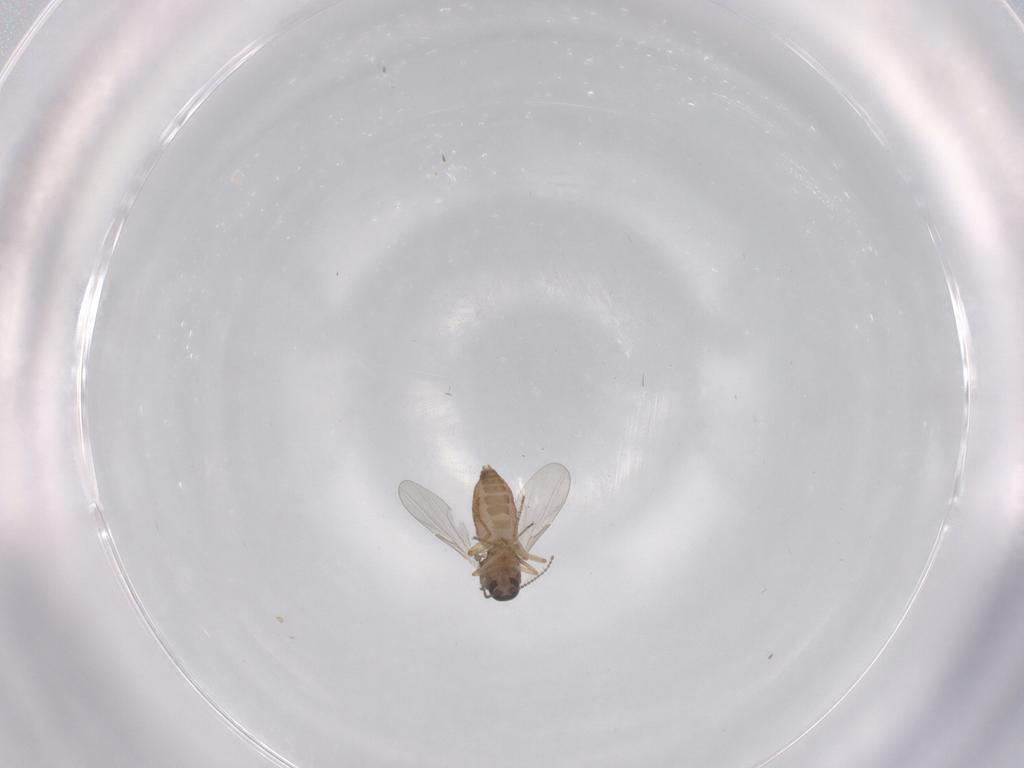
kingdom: Animalia
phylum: Arthropoda
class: Insecta
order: Diptera
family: Ceratopogonidae
